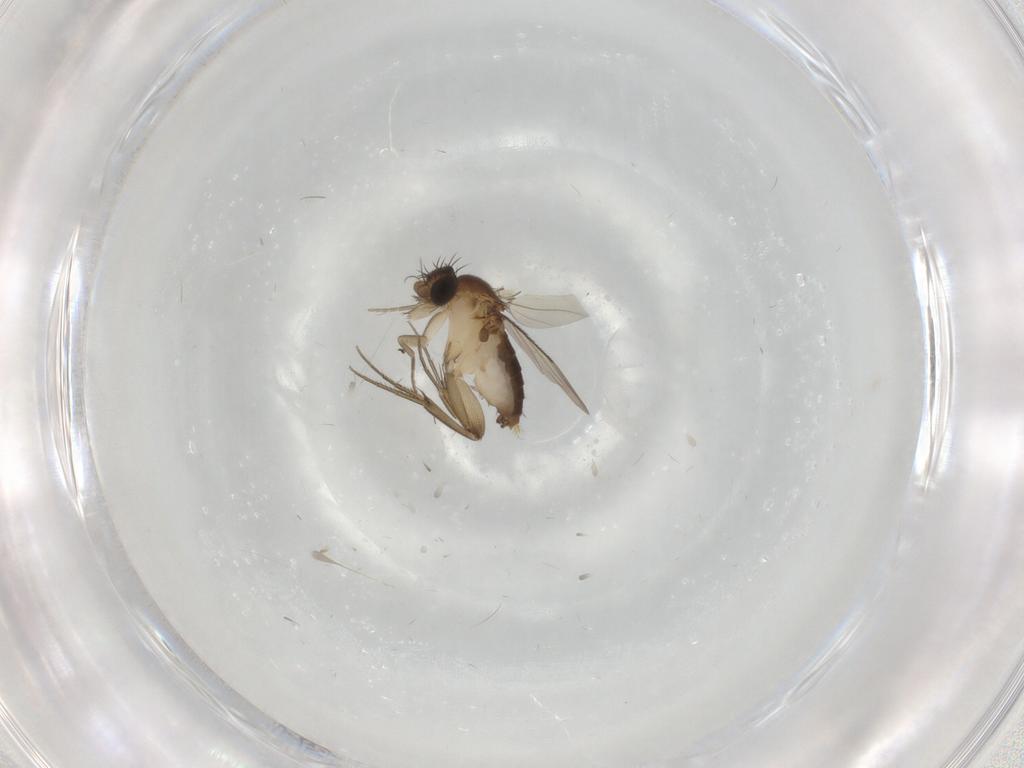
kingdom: Animalia
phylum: Arthropoda
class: Insecta
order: Diptera
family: Phoridae
